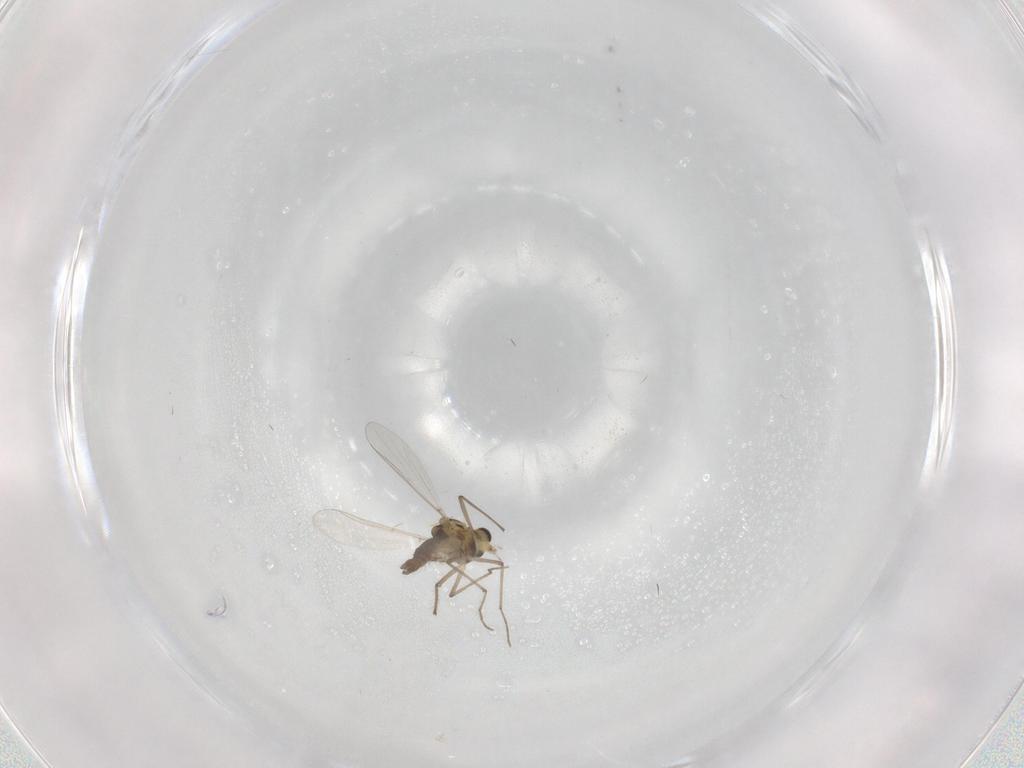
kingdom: Animalia
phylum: Arthropoda
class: Insecta
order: Diptera
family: Chironomidae
